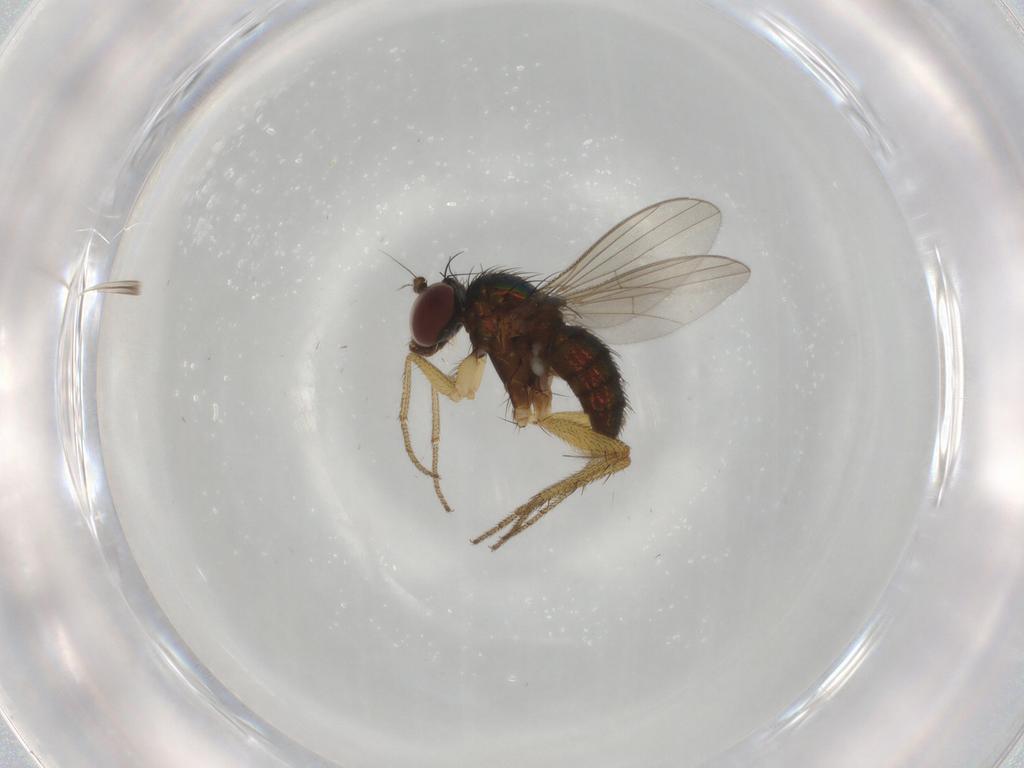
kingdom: Animalia
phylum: Arthropoda
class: Insecta
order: Diptera
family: Dolichopodidae
